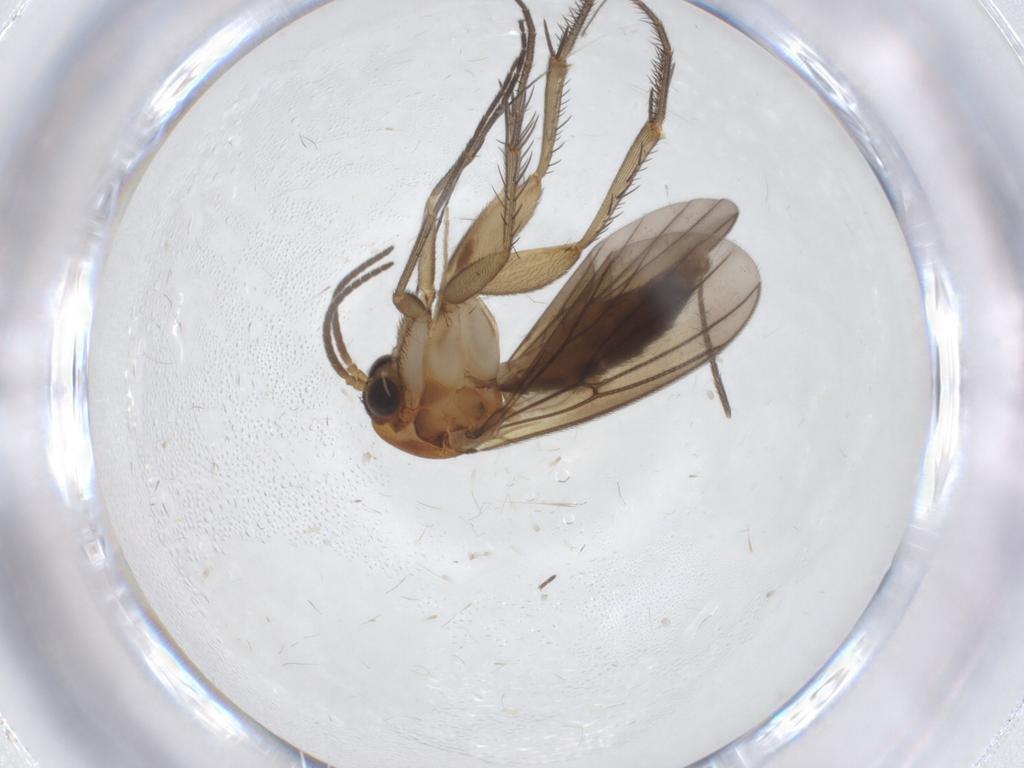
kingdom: Animalia
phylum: Arthropoda
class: Insecta
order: Diptera
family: Mycetophilidae
